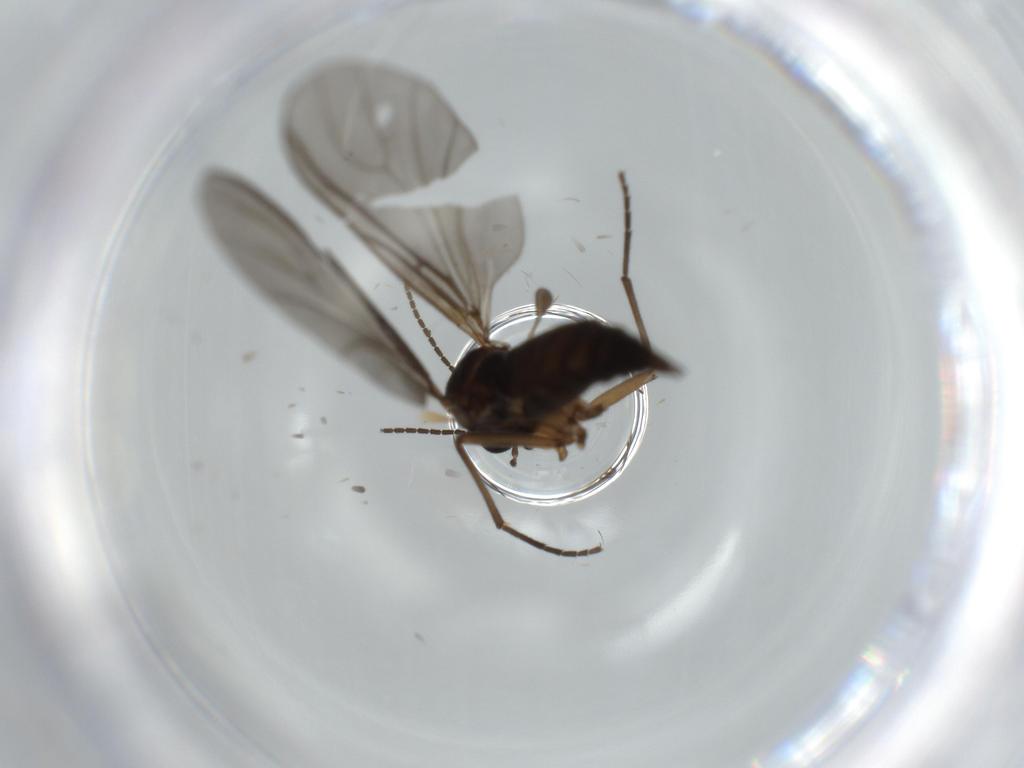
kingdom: Animalia
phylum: Arthropoda
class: Insecta
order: Diptera
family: Sciaridae
